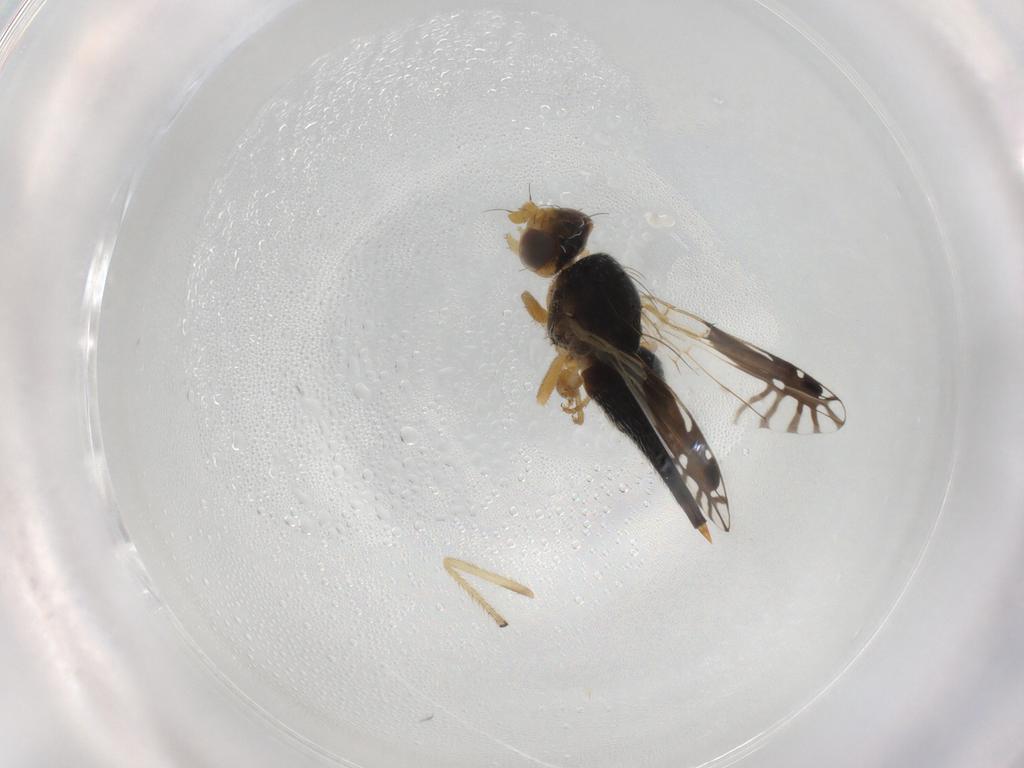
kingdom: Animalia
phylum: Arthropoda
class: Insecta
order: Diptera
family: Tephritidae
